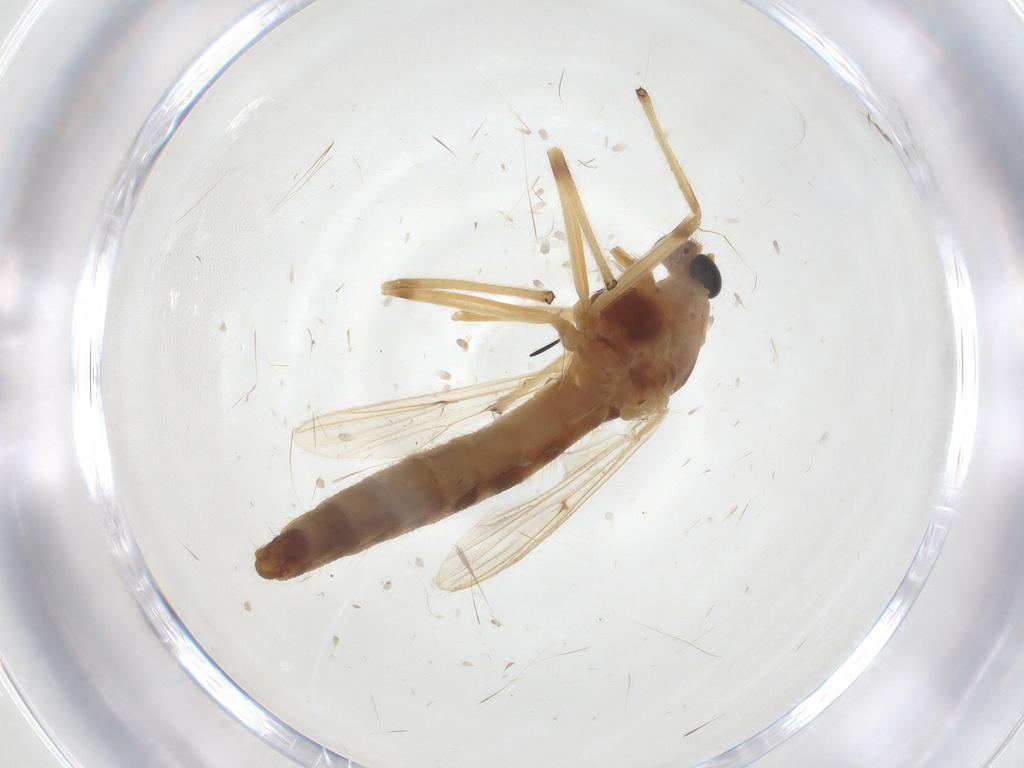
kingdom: Animalia
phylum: Arthropoda
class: Insecta
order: Diptera
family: Chironomidae
